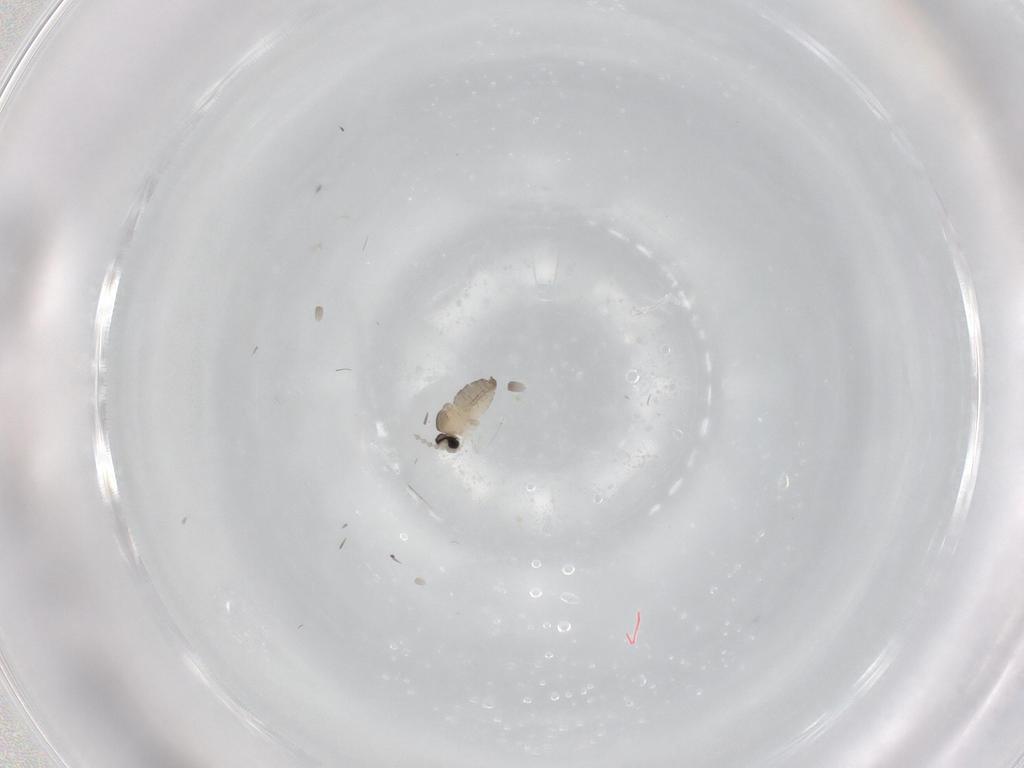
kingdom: Animalia
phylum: Arthropoda
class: Insecta
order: Diptera
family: Cecidomyiidae
